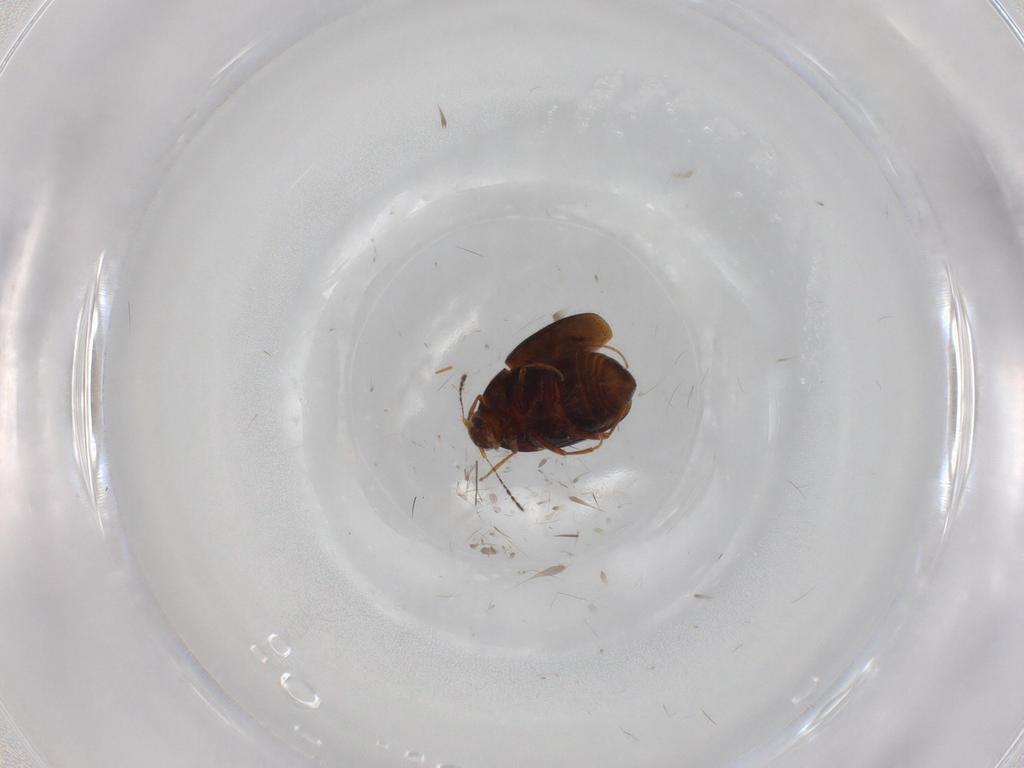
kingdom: Animalia
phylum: Arthropoda
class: Insecta
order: Coleoptera
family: Staphylinidae
